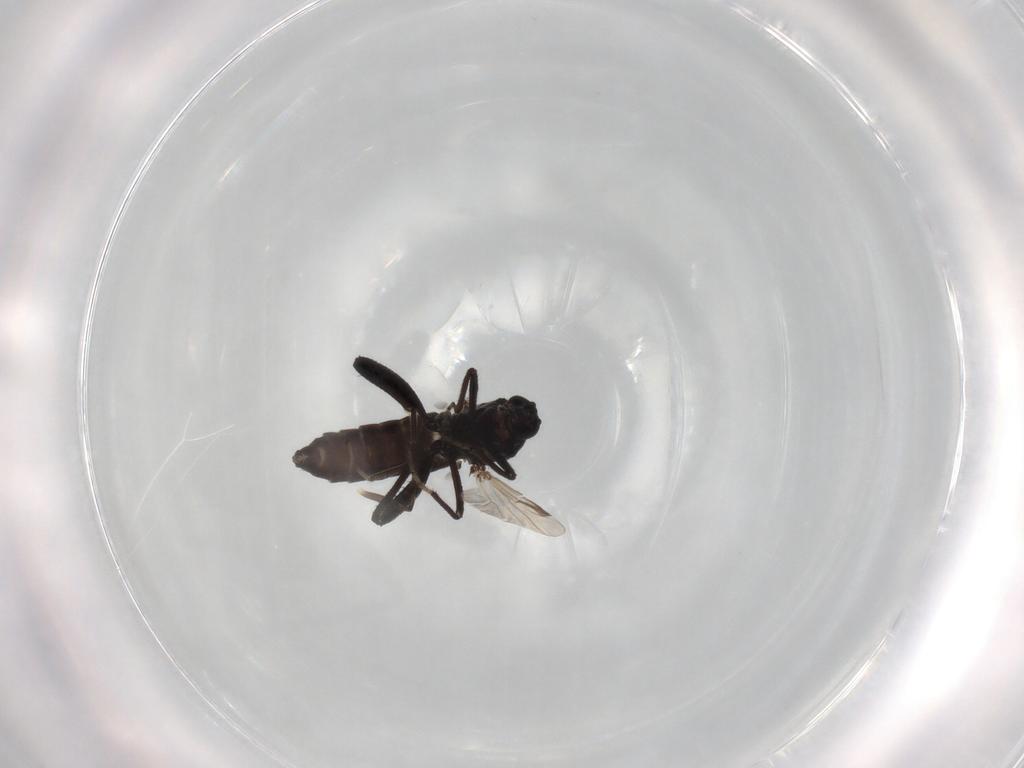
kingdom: Animalia
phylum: Arthropoda
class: Insecta
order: Diptera
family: Ceratopogonidae
